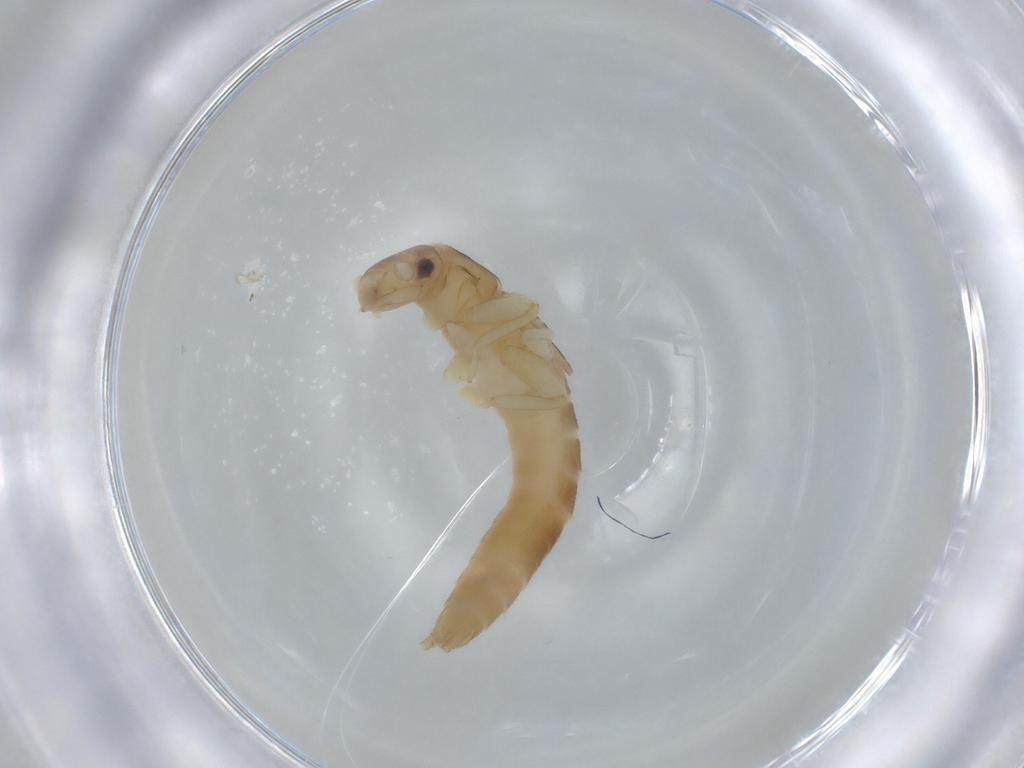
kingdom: Animalia
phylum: Arthropoda
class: Insecta
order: Plecoptera
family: Leuctridae
